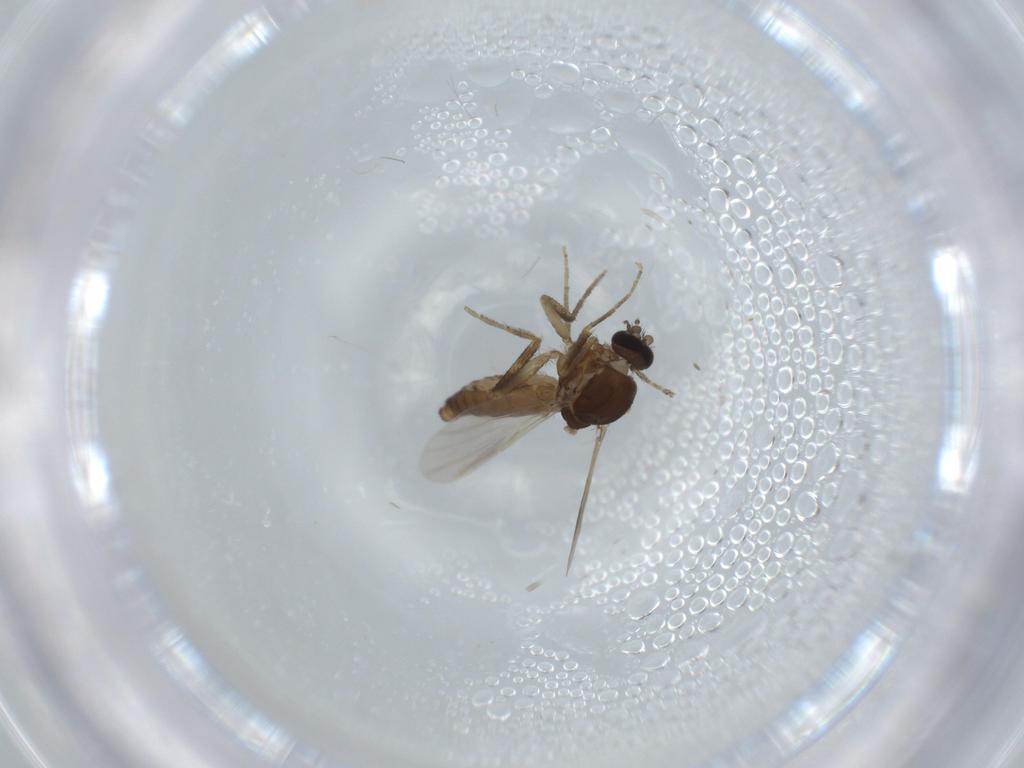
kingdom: Animalia
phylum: Arthropoda
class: Insecta
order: Diptera
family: Ceratopogonidae
